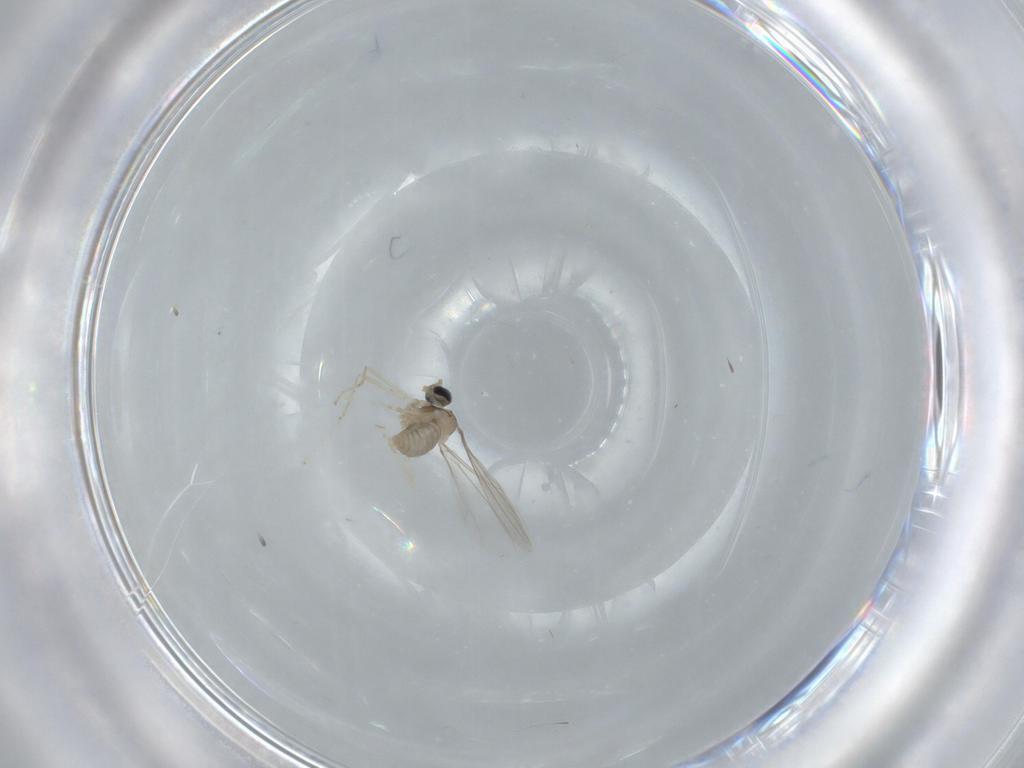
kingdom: Animalia
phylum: Arthropoda
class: Insecta
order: Diptera
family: Cecidomyiidae
